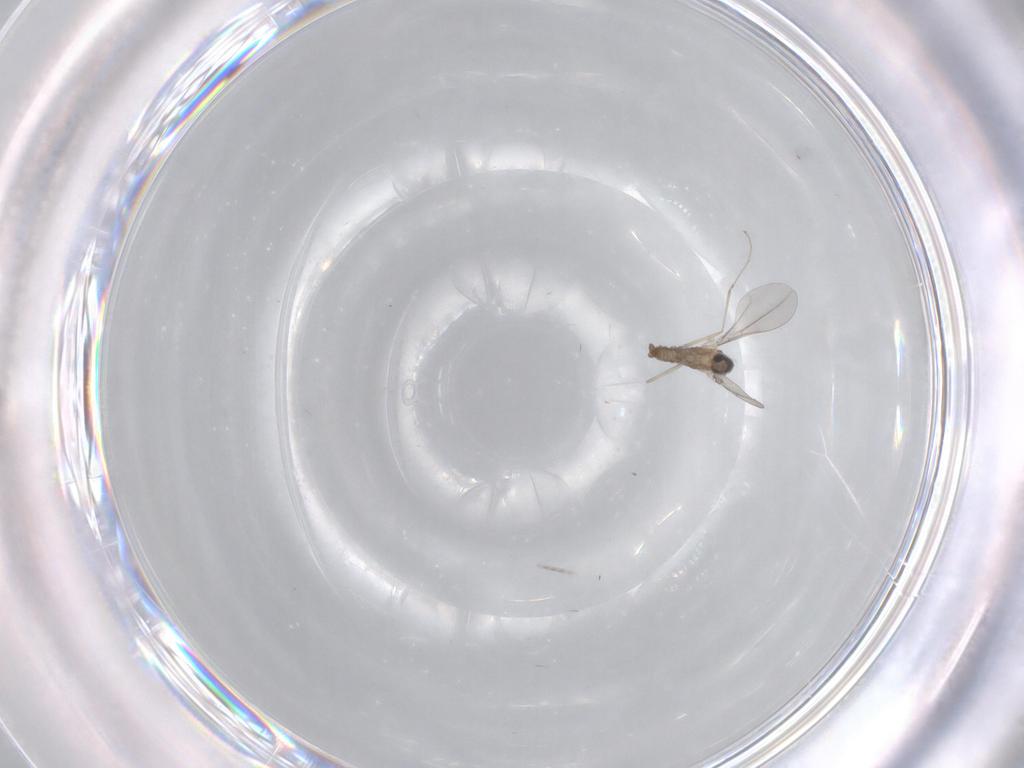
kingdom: Animalia
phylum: Arthropoda
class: Insecta
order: Diptera
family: Cecidomyiidae
